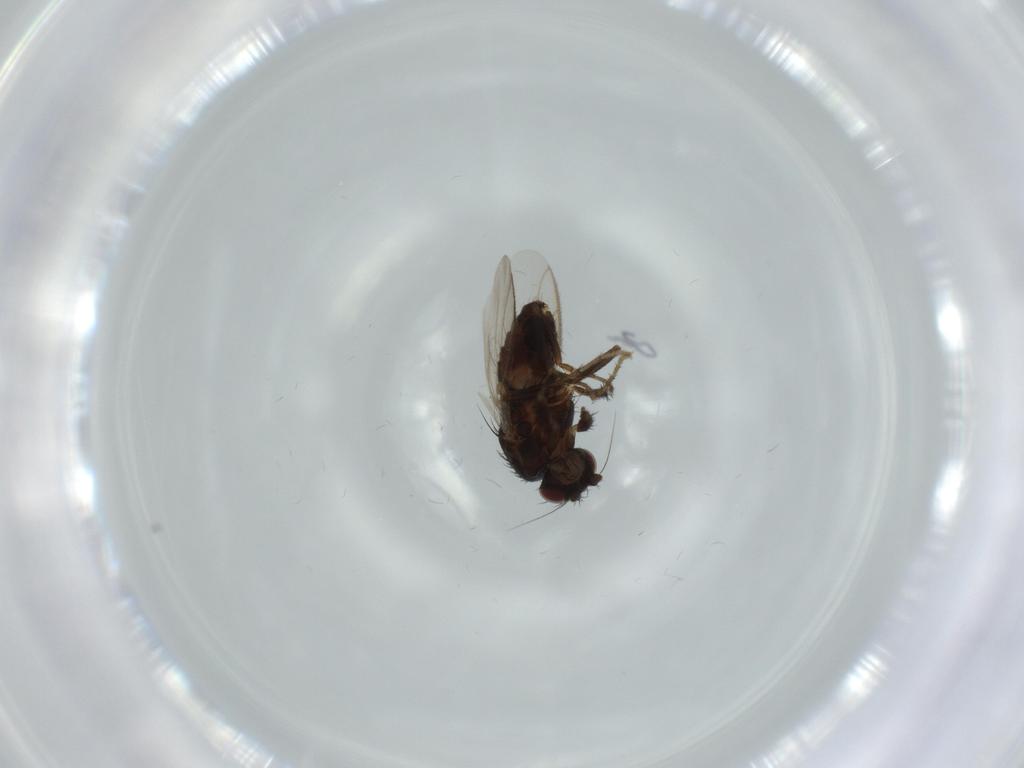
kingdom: Animalia
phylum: Arthropoda
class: Insecta
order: Diptera
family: Sphaeroceridae
